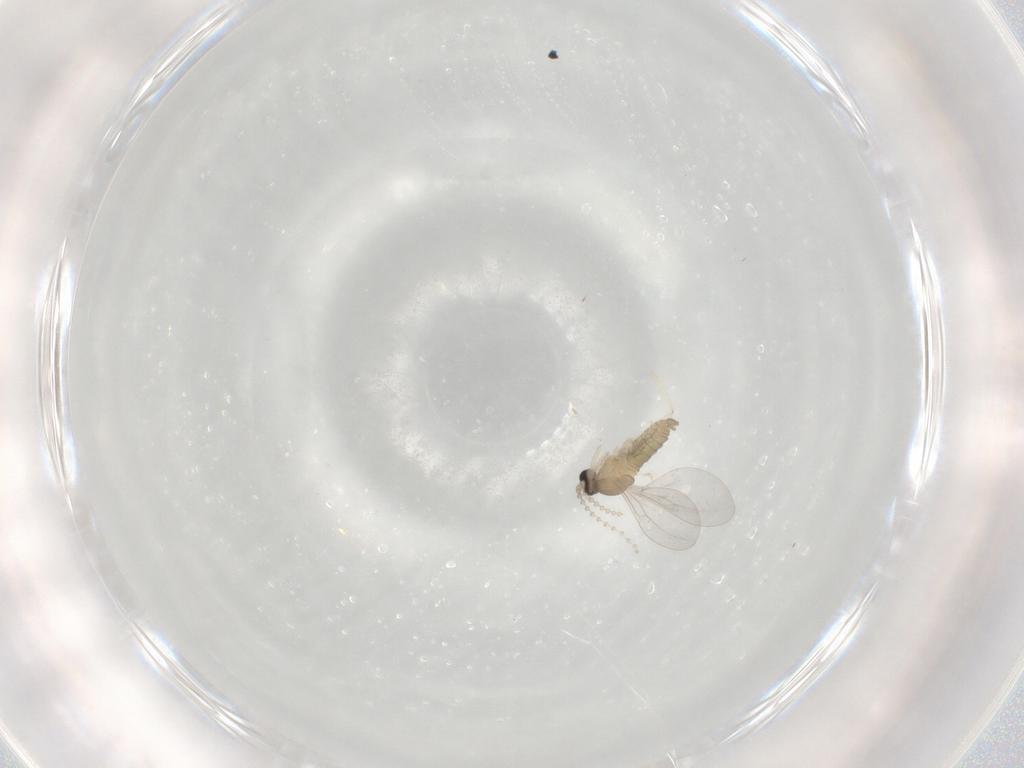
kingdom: Animalia
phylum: Arthropoda
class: Insecta
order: Diptera
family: Cecidomyiidae
